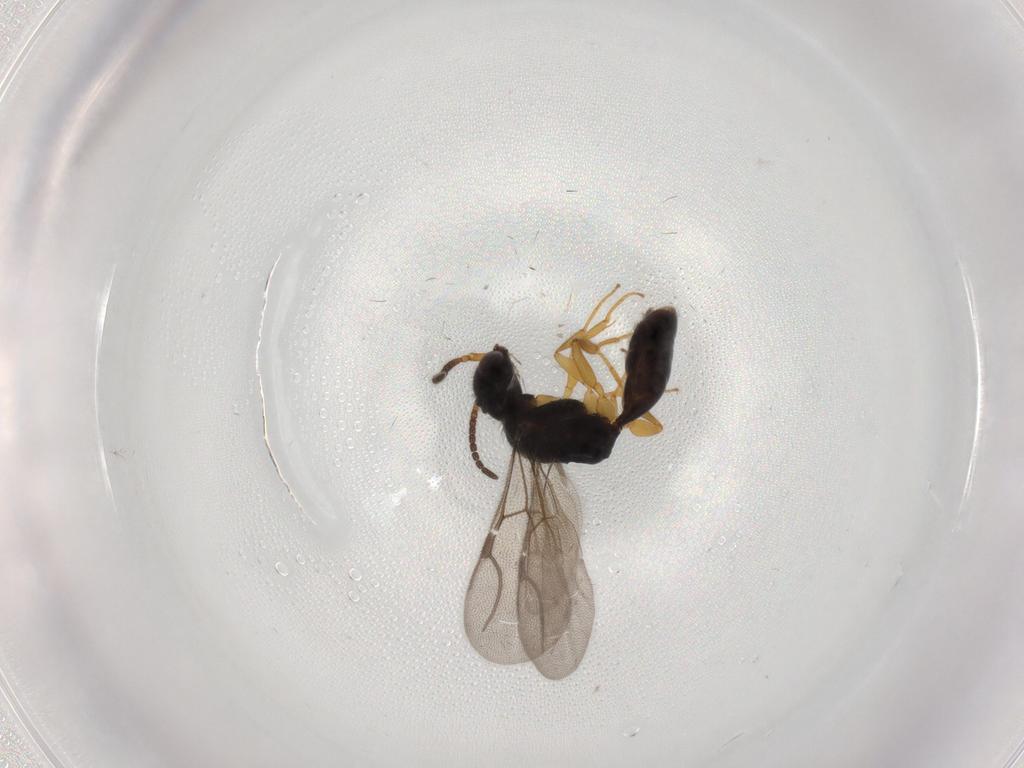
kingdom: Animalia
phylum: Arthropoda
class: Insecta
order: Hymenoptera
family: Bethylidae
